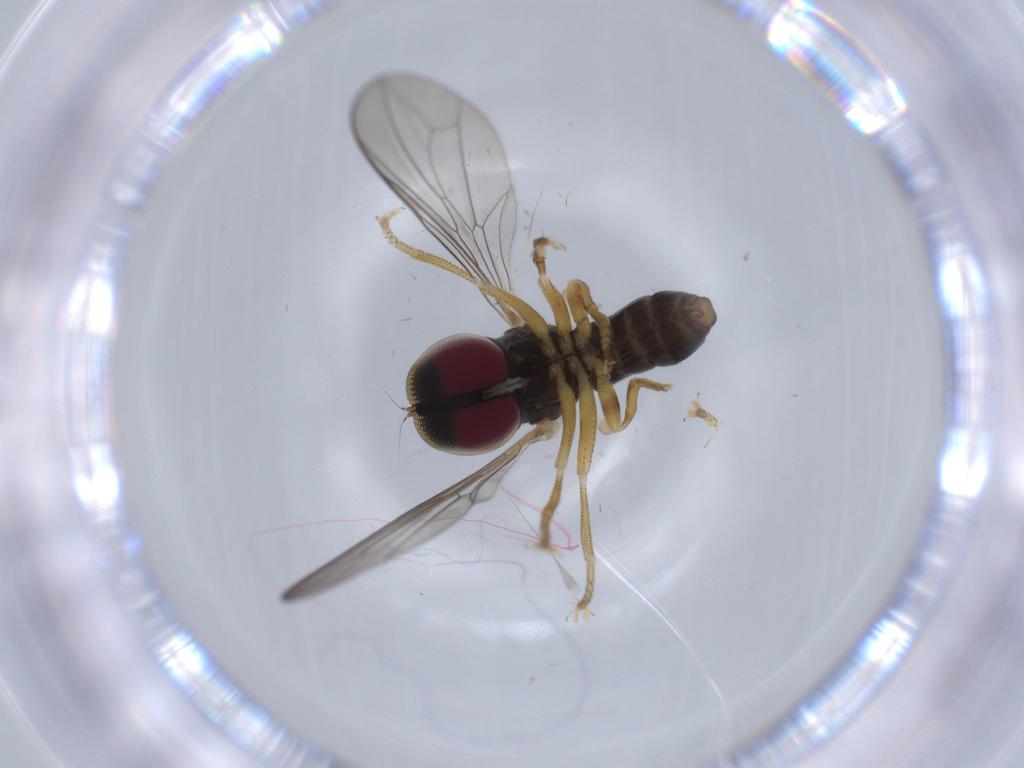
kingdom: Animalia
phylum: Arthropoda
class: Insecta
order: Diptera
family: Pipunculidae
